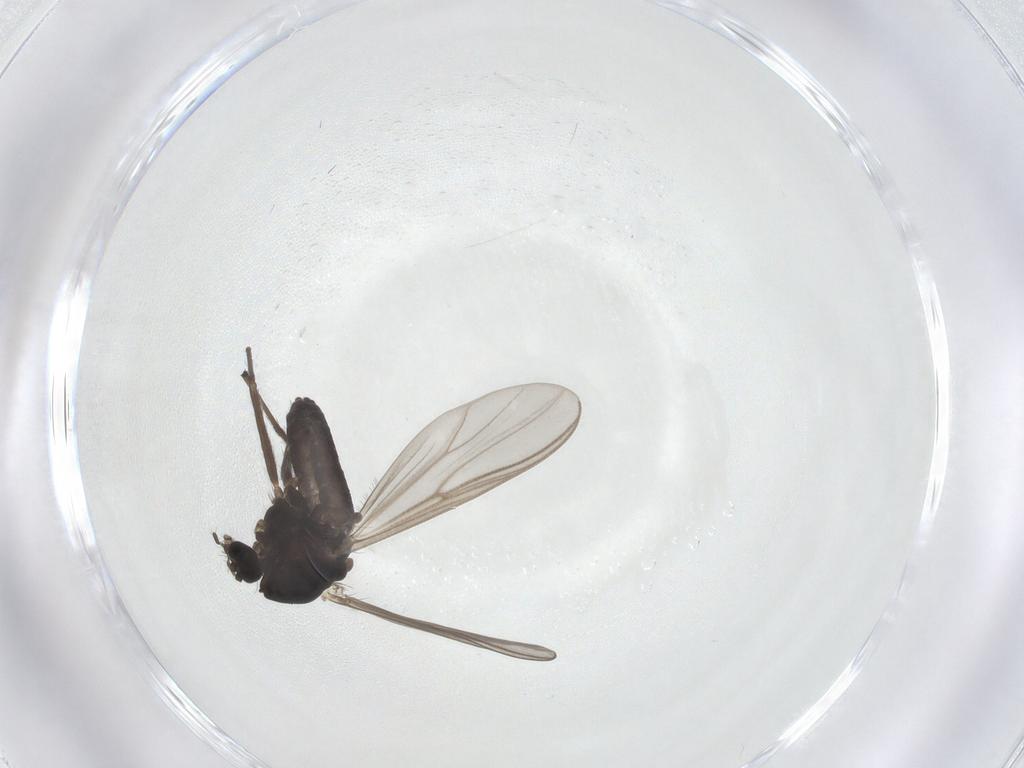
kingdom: Animalia
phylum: Arthropoda
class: Insecta
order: Diptera
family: Chironomidae
